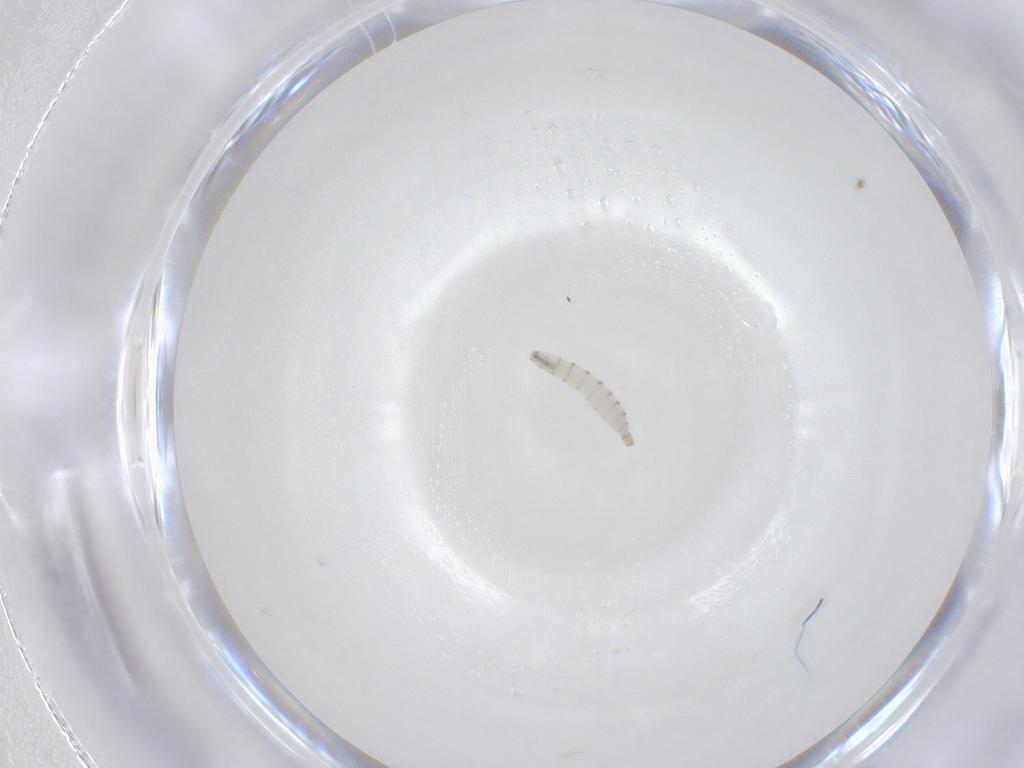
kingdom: Animalia
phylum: Arthropoda
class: Insecta
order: Diptera
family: Calliphoridae
